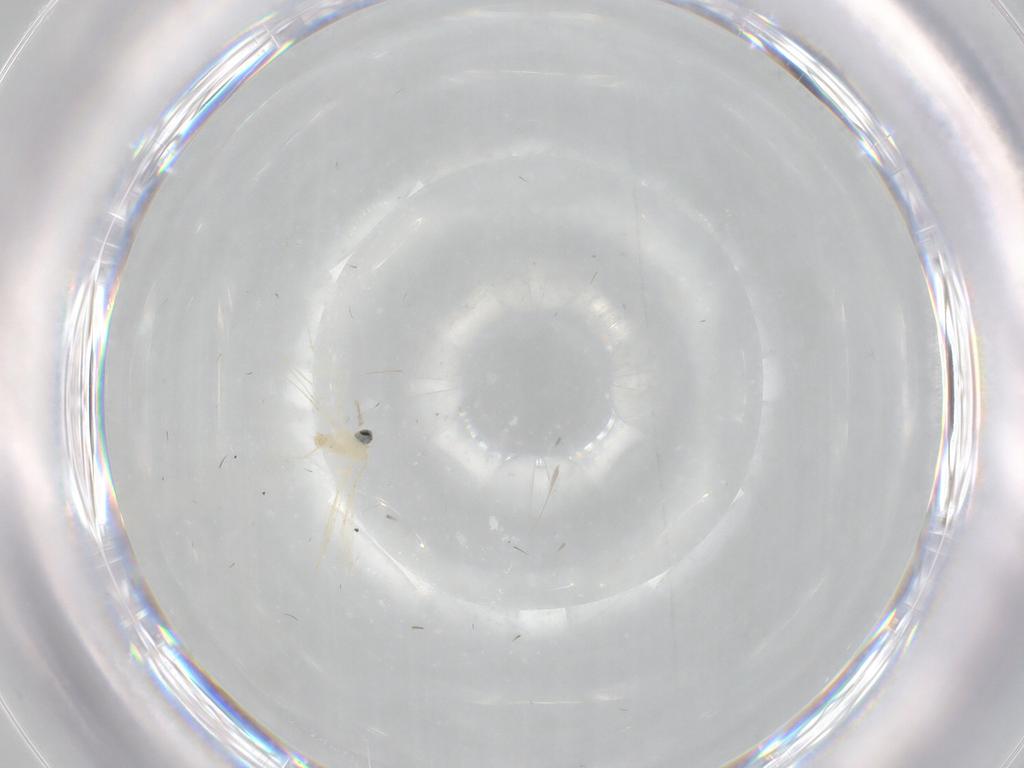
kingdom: Animalia
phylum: Arthropoda
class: Insecta
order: Diptera
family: Cecidomyiidae
